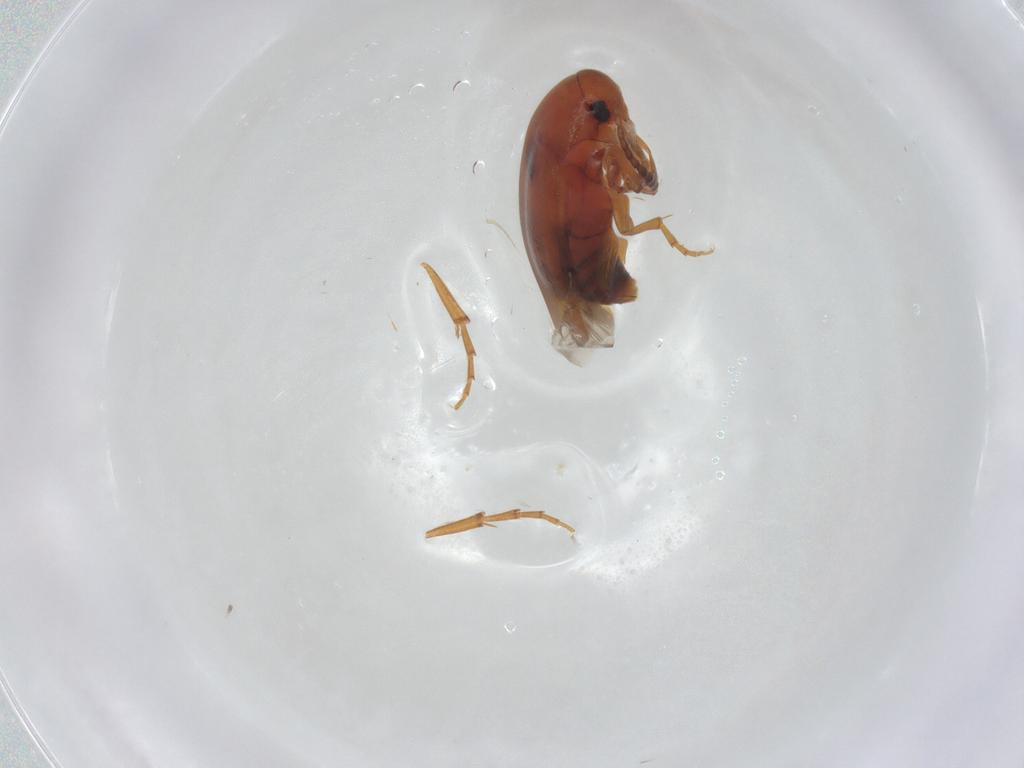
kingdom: Animalia
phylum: Arthropoda
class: Insecta
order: Coleoptera
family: Scraptiidae
